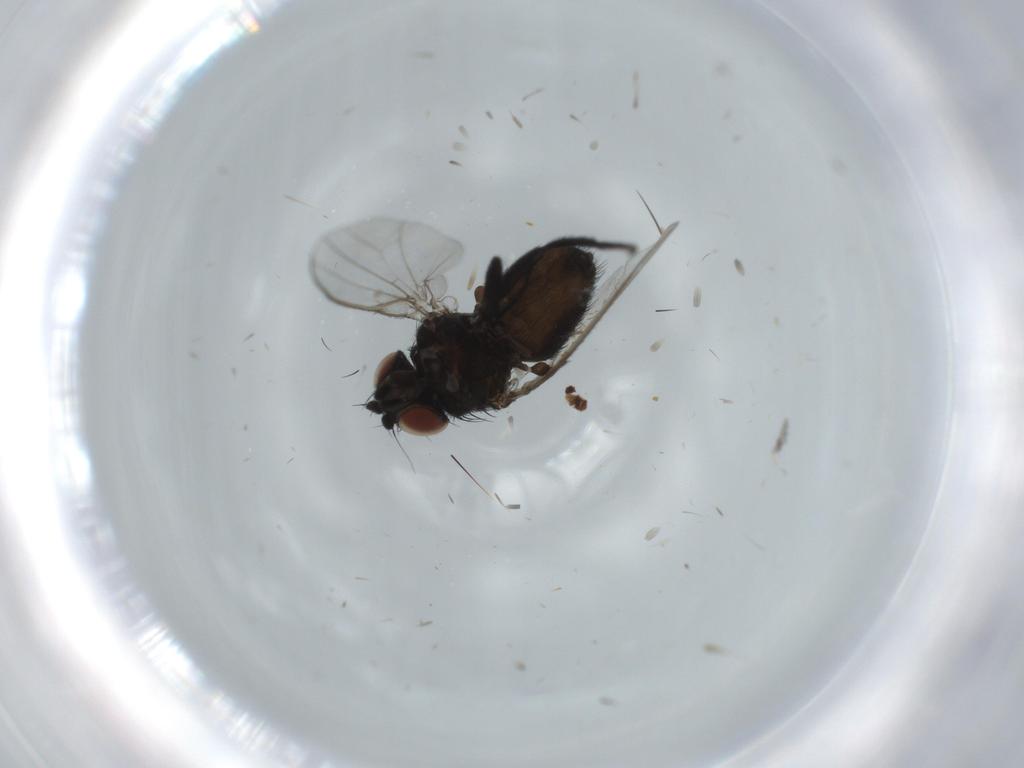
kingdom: Animalia
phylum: Arthropoda
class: Insecta
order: Diptera
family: Milichiidae
